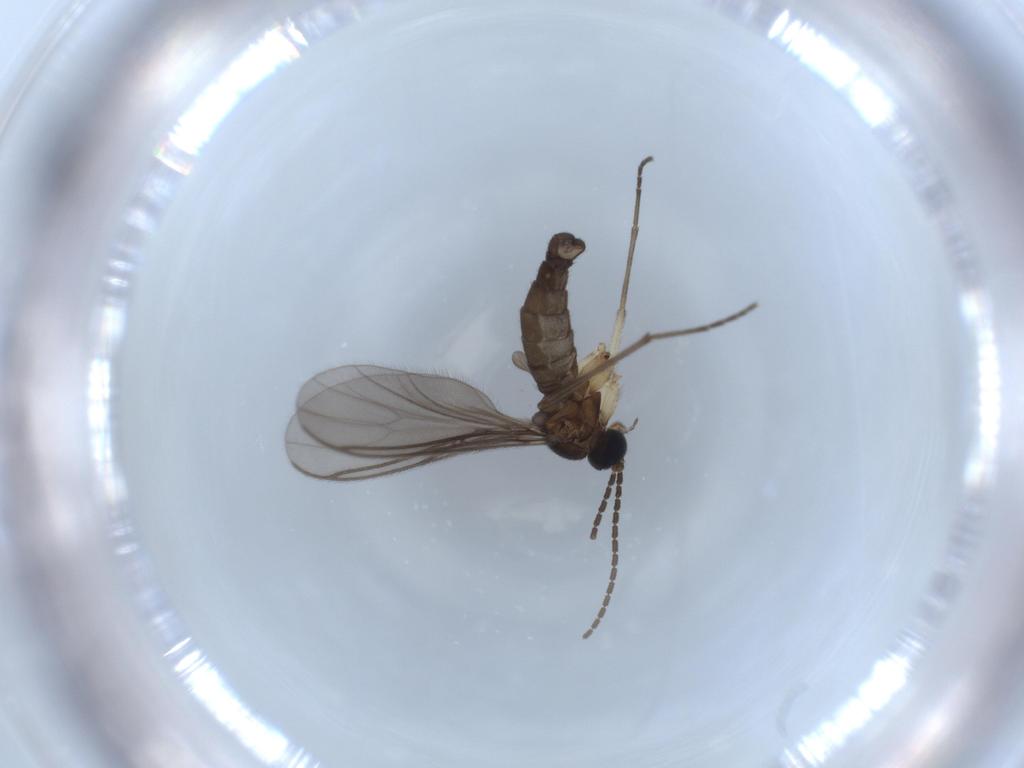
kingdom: Animalia
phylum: Arthropoda
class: Insecta
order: Diptera
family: Sciaridae
